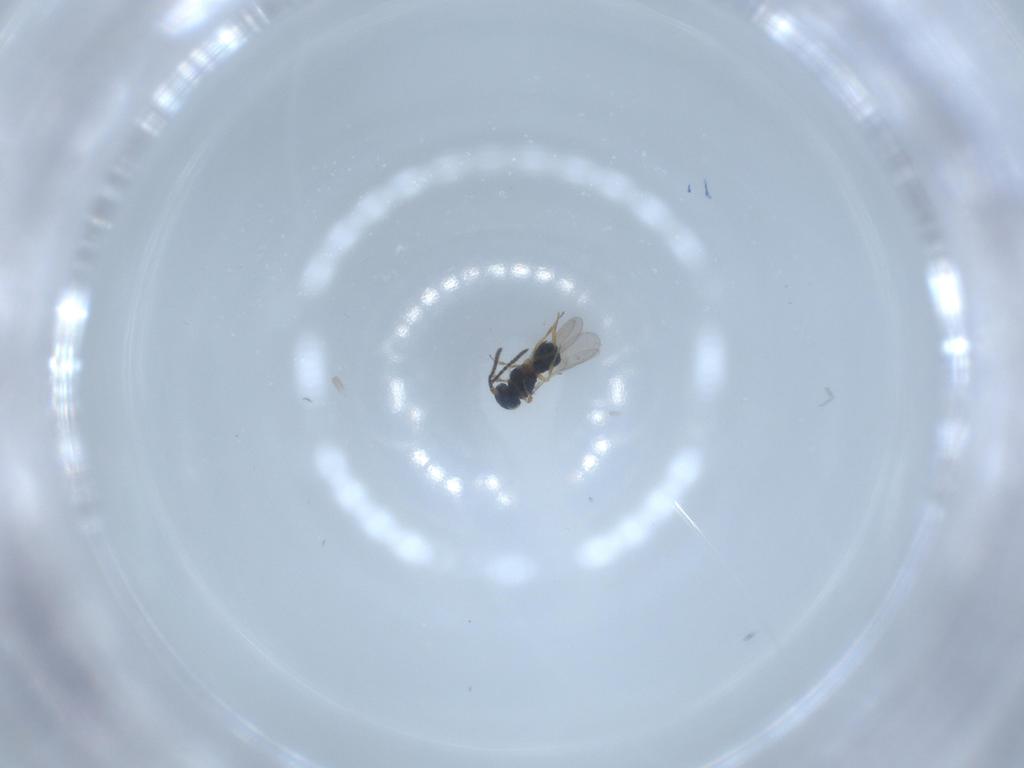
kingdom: Animalia
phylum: Arthropoda
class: Insecta
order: Hymenoptera
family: Scelionidae
